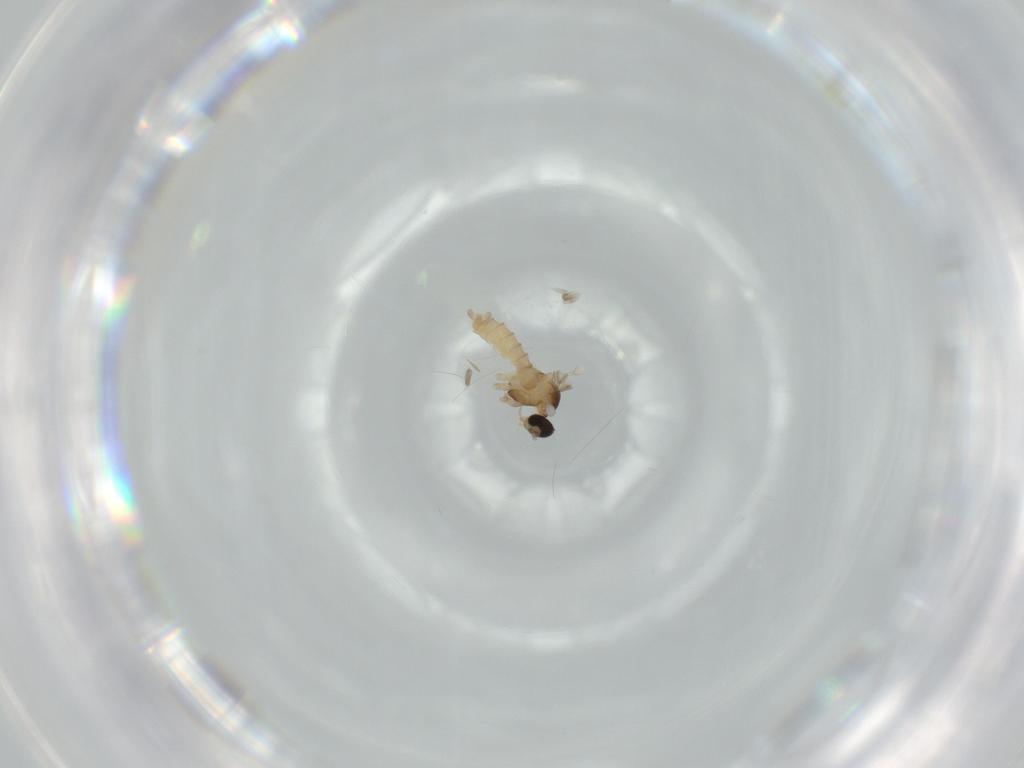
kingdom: Animalia
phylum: Arthropoda
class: Insecta
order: Diptera
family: Cecidomyiidae
